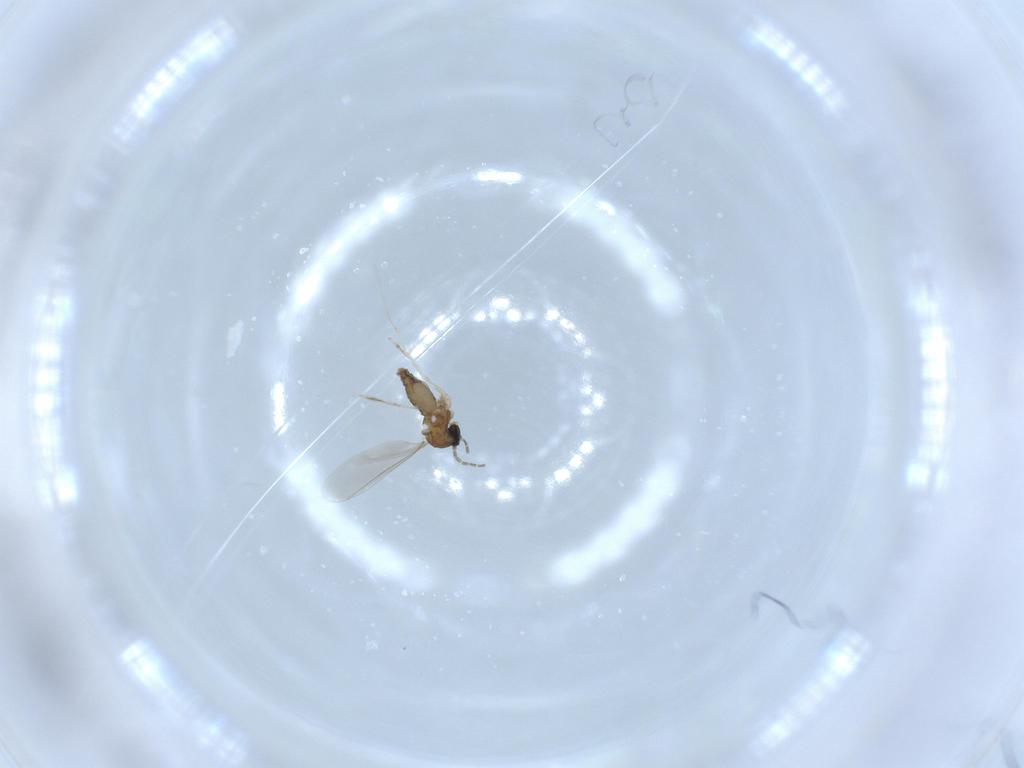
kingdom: Animalia
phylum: Arthropoda
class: Insecta
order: Diptera
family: Cecidomyiidae
